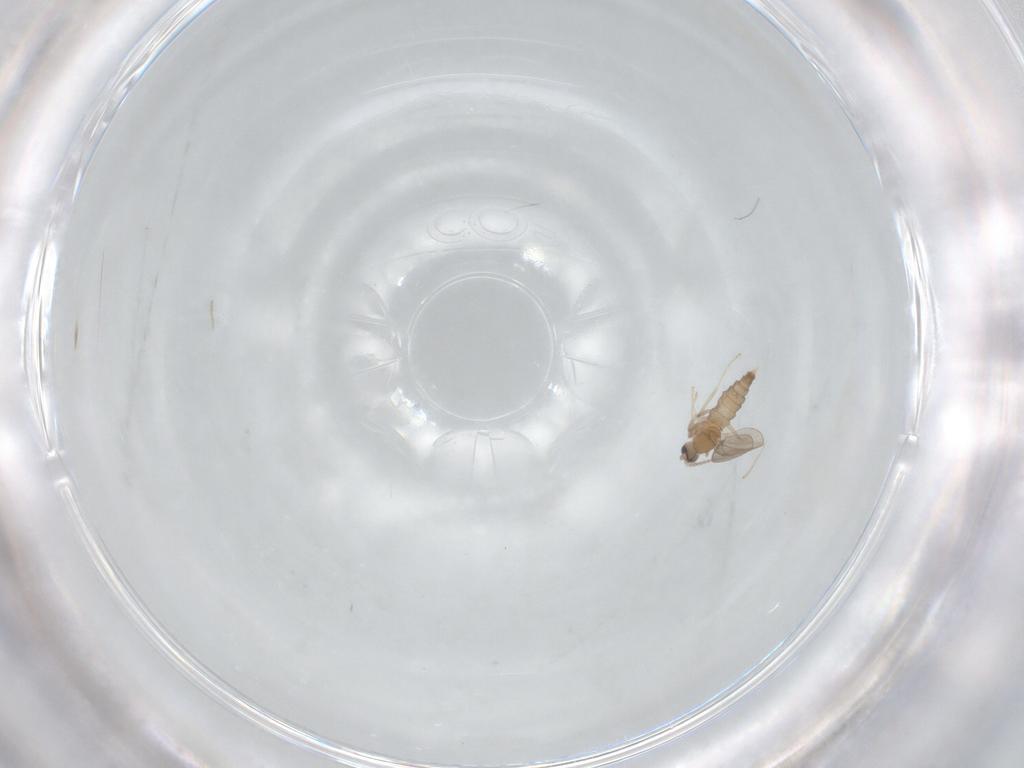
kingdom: Animalia
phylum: Arthropoda
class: Insecta
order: Diptera
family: Cecidomyiidae
